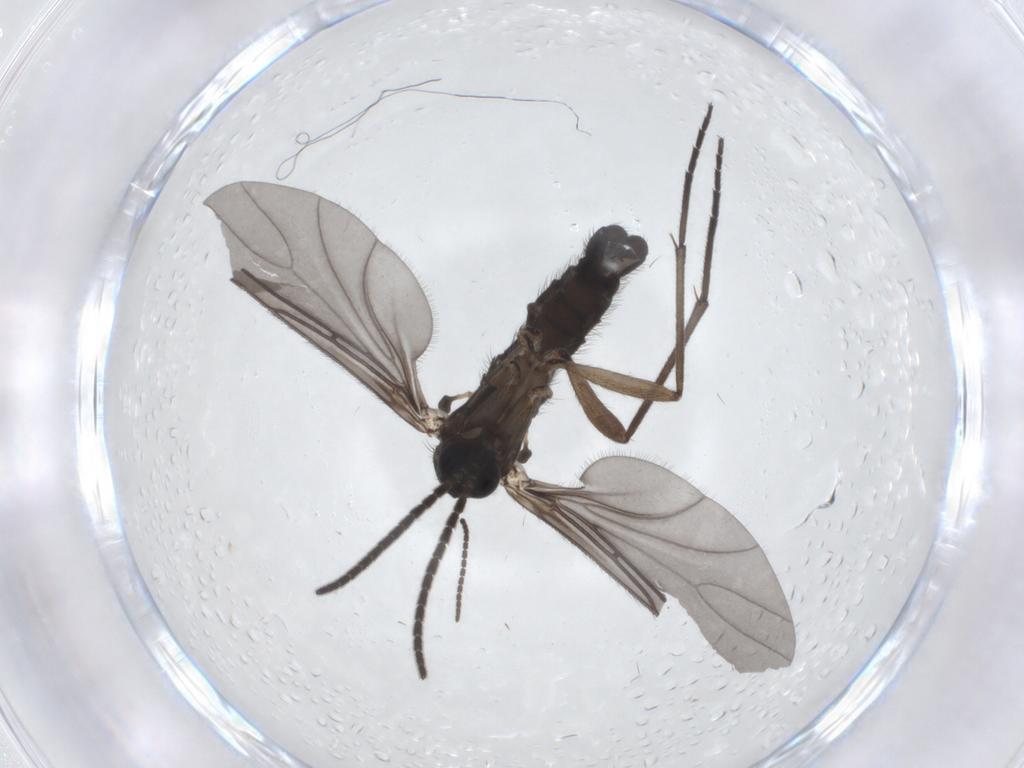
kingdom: Animalia
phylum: Arthropoda
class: Insecta
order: Diptera
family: Sciaridae
